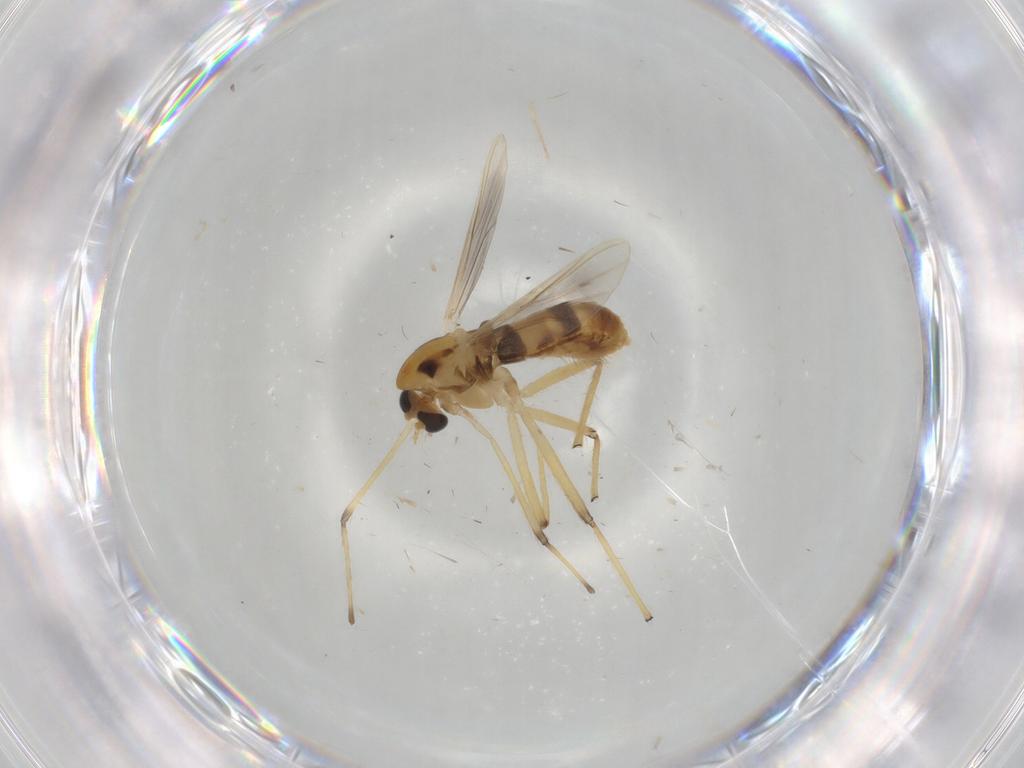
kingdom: Animalia
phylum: Arthropoda
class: Insecta
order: Diptera
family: Chironomidae
